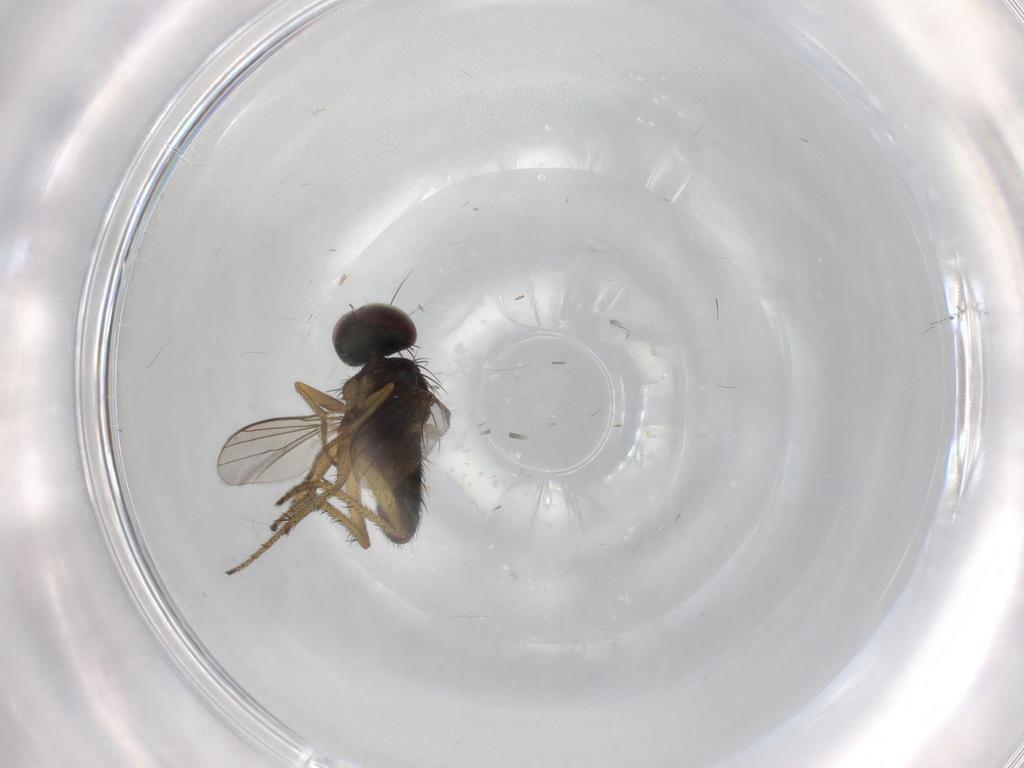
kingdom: Animalia
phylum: Arthropoda
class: Insecta
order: Diptera
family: Chironomidae
